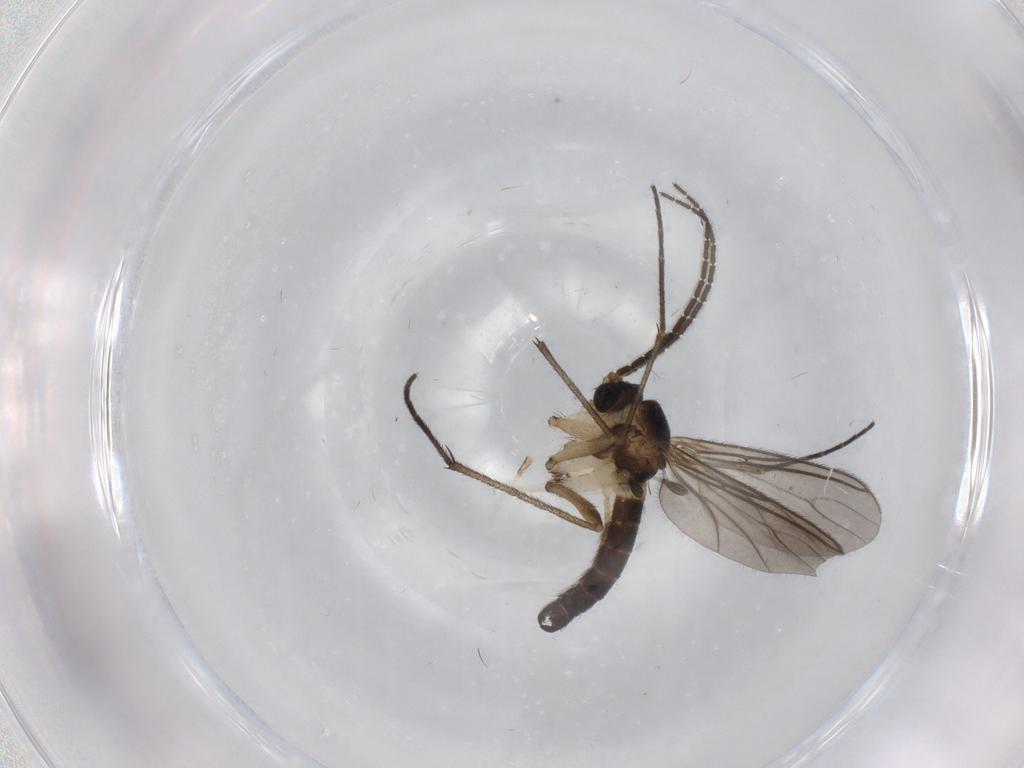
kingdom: Animalia
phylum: Arthropoda
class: Insecta
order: Diptera
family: Sciaridae
